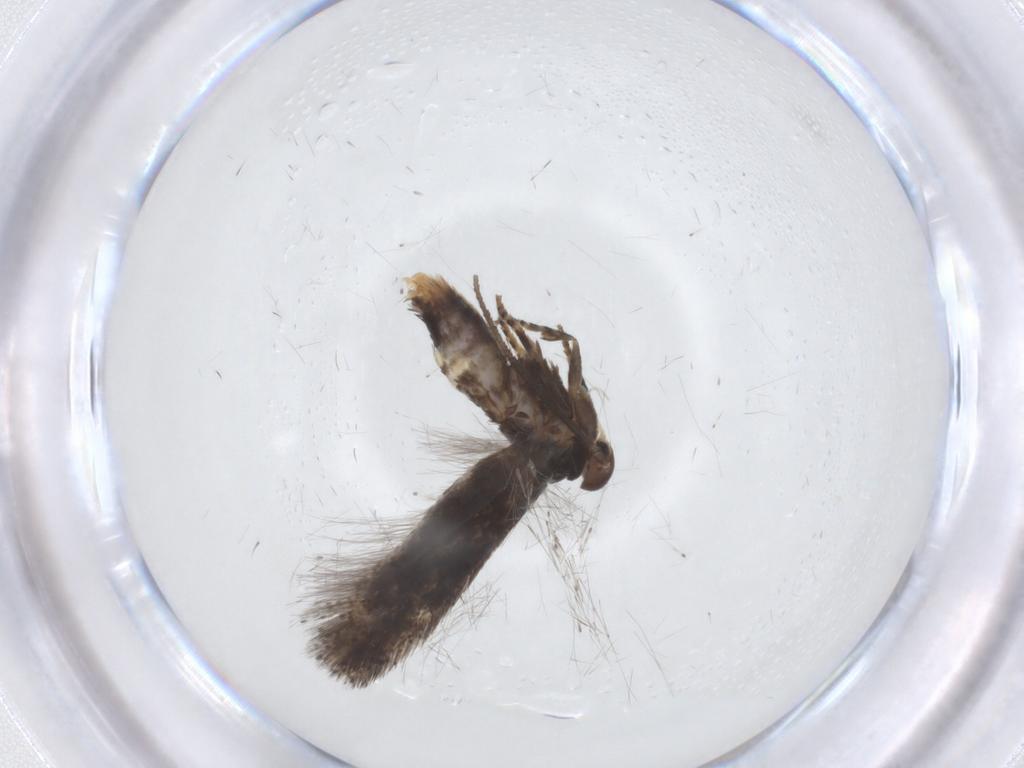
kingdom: Animalia
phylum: Arthropoda
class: Insecta
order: Lepidoptera
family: Elachistidae
